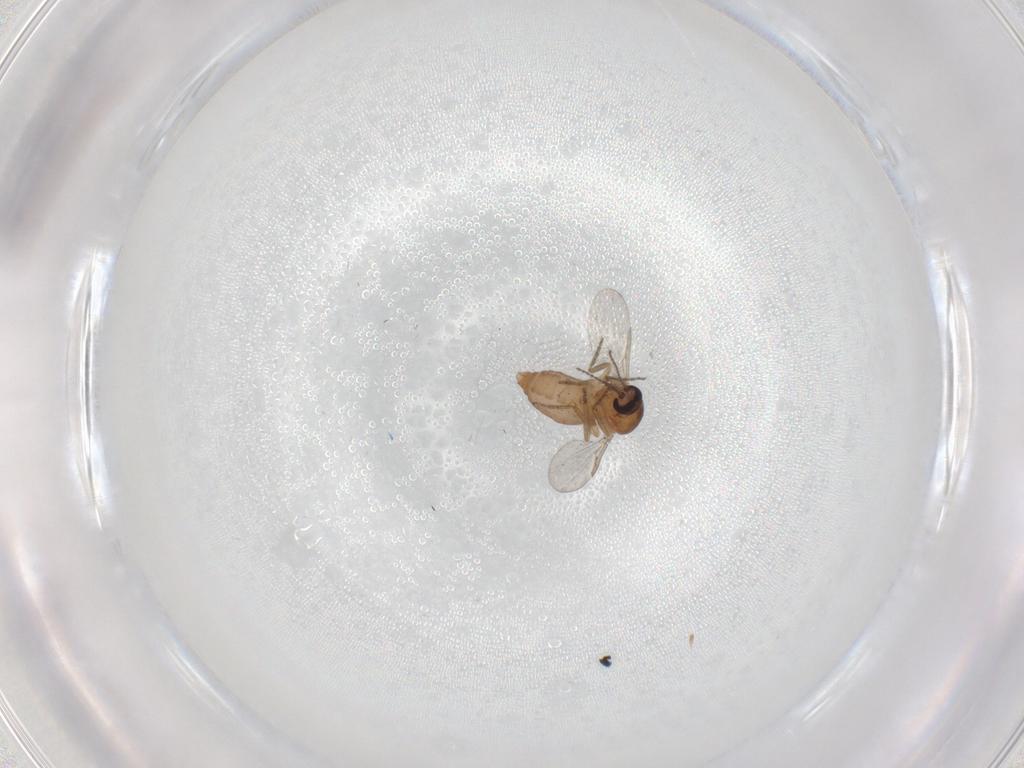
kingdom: Animalia
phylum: Arthropoda
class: Insecta
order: Diptera
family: Ceratopogonidae
